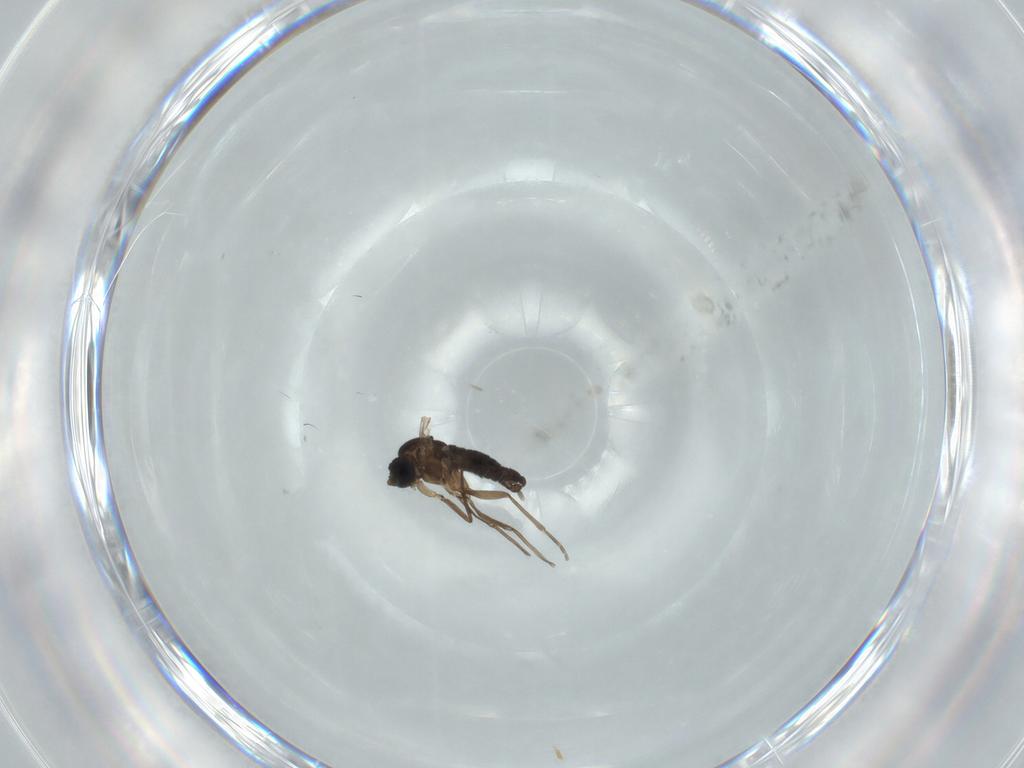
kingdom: Animalia
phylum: Arthropoda
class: Insecta
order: Diptera
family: Sciaridae
